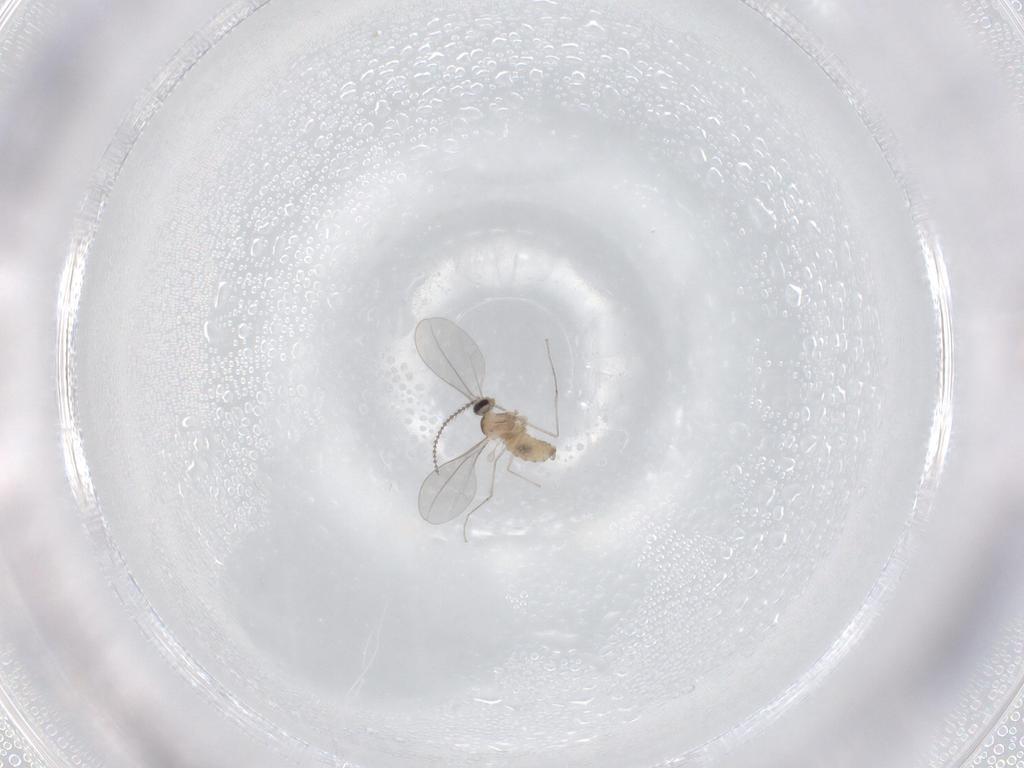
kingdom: Animalia
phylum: Arthropoda
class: Insecta
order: Diptera
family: Cecidomyiidae
